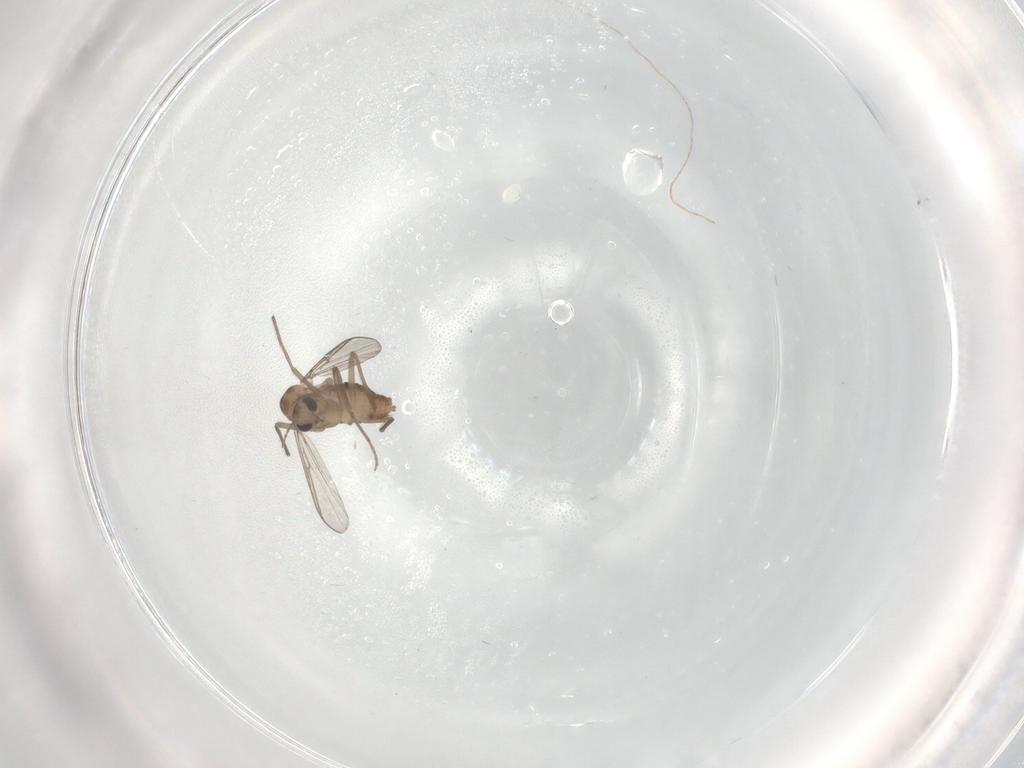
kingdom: Animalia
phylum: Arthropoda
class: Insecta
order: Diptera
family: Chironomidae
